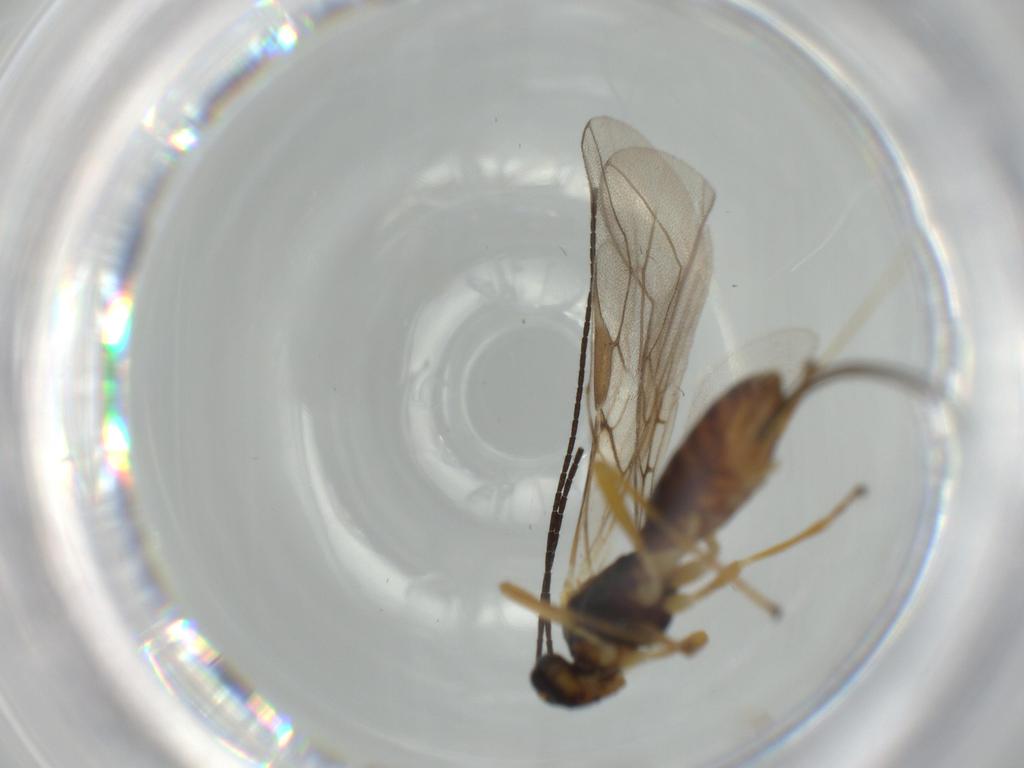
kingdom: Animalia
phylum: Arthropoda
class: Insecta
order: Hymenoptera
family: Braconidae
